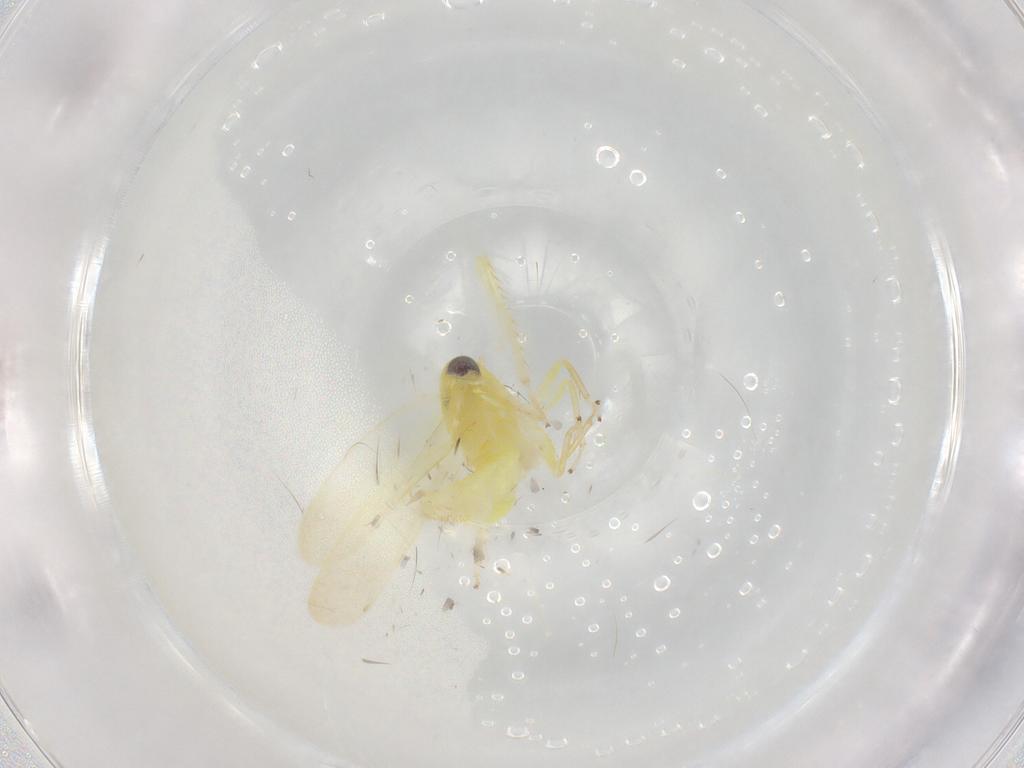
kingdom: Animalia
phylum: Arthropoda
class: Insecta
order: Hemiptera
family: Cicadellidae
